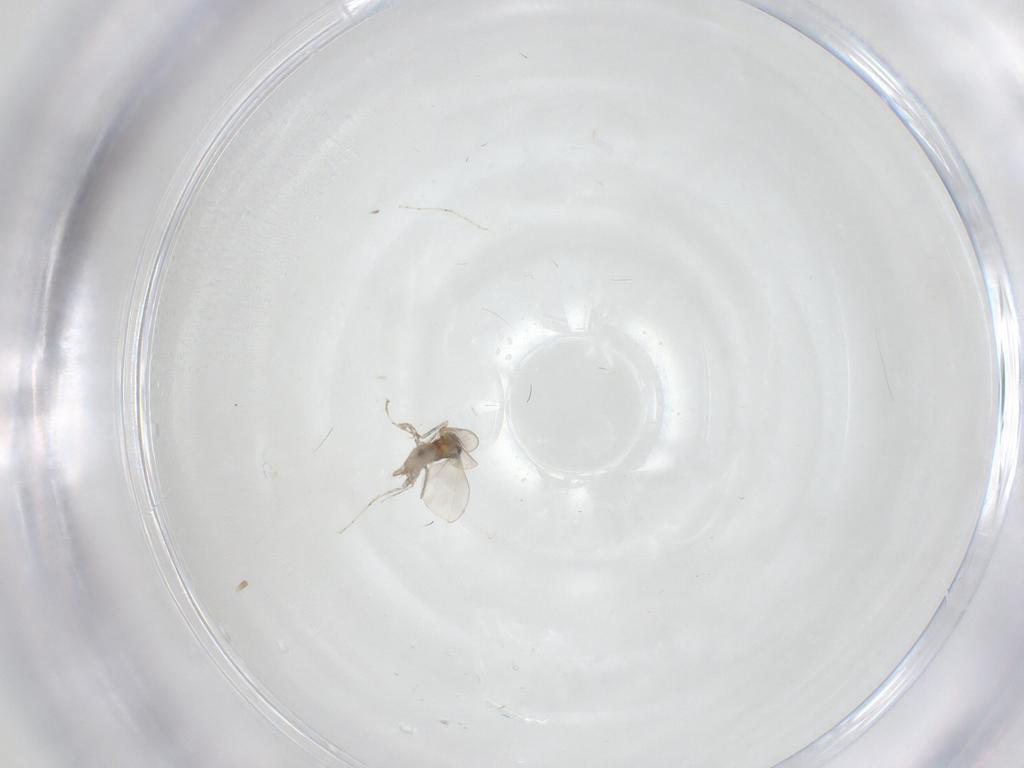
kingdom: Animalia
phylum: Arthropoda
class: Insecta
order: Diptera
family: Cecidomyiidae
